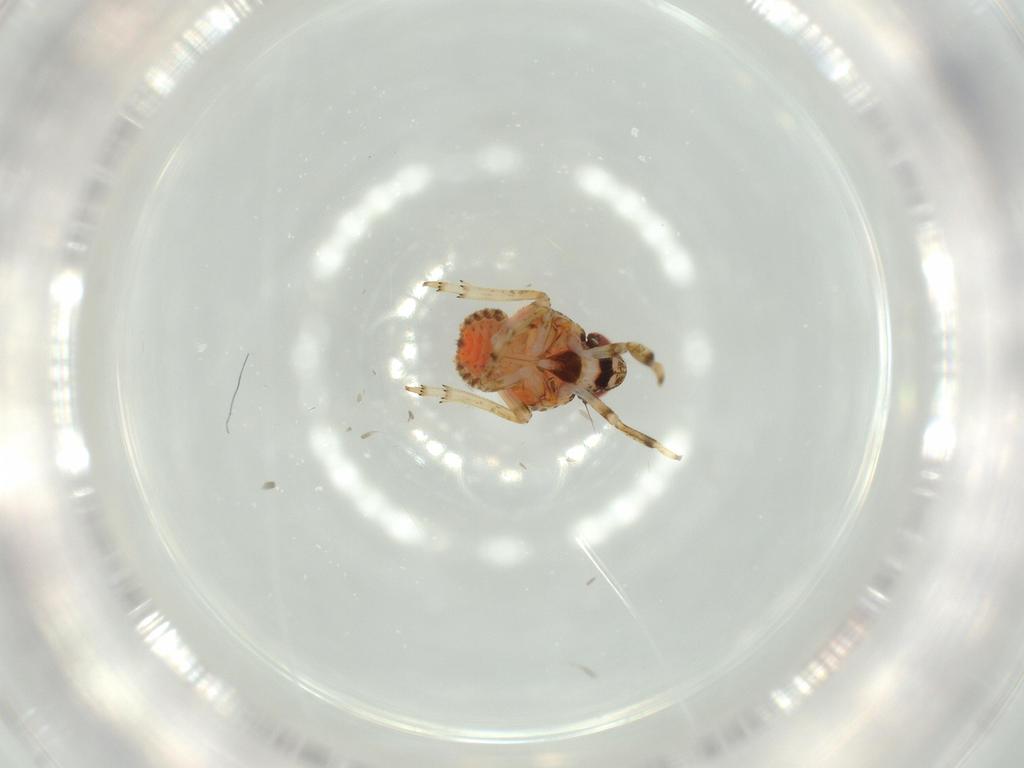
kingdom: Animalia
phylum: Arthropoda
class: Insecta
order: Hemiptera
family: Issidae
